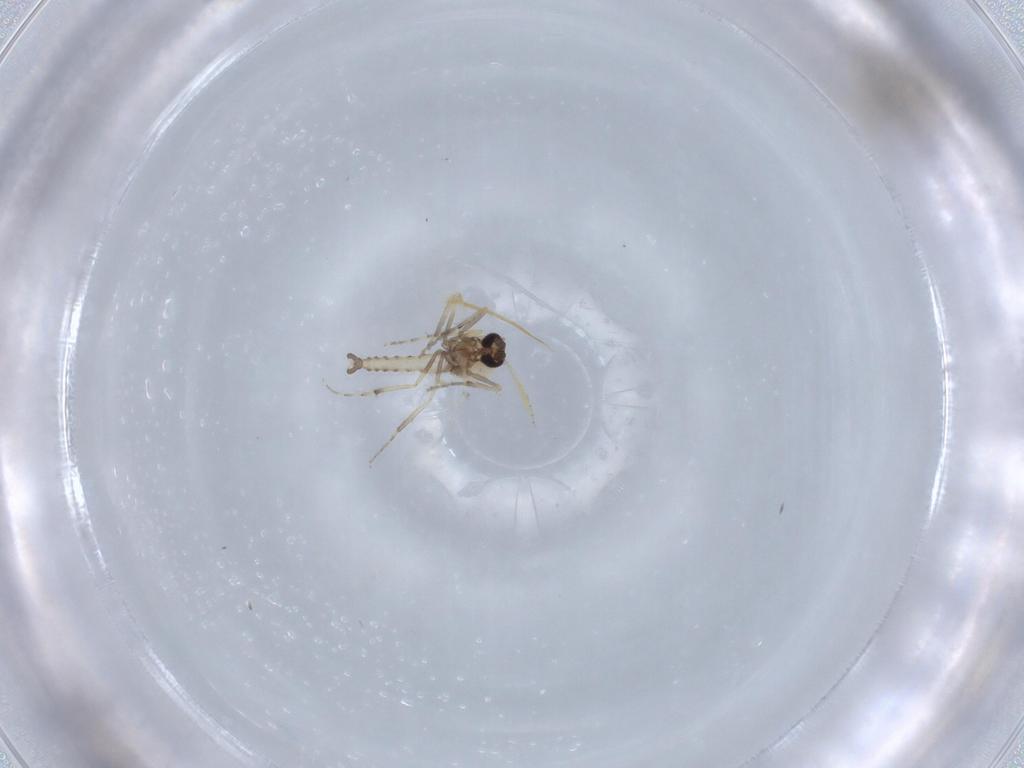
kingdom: Animalia
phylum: Arthropoda
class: Insecta
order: Diptera
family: Ceratopogonidae
